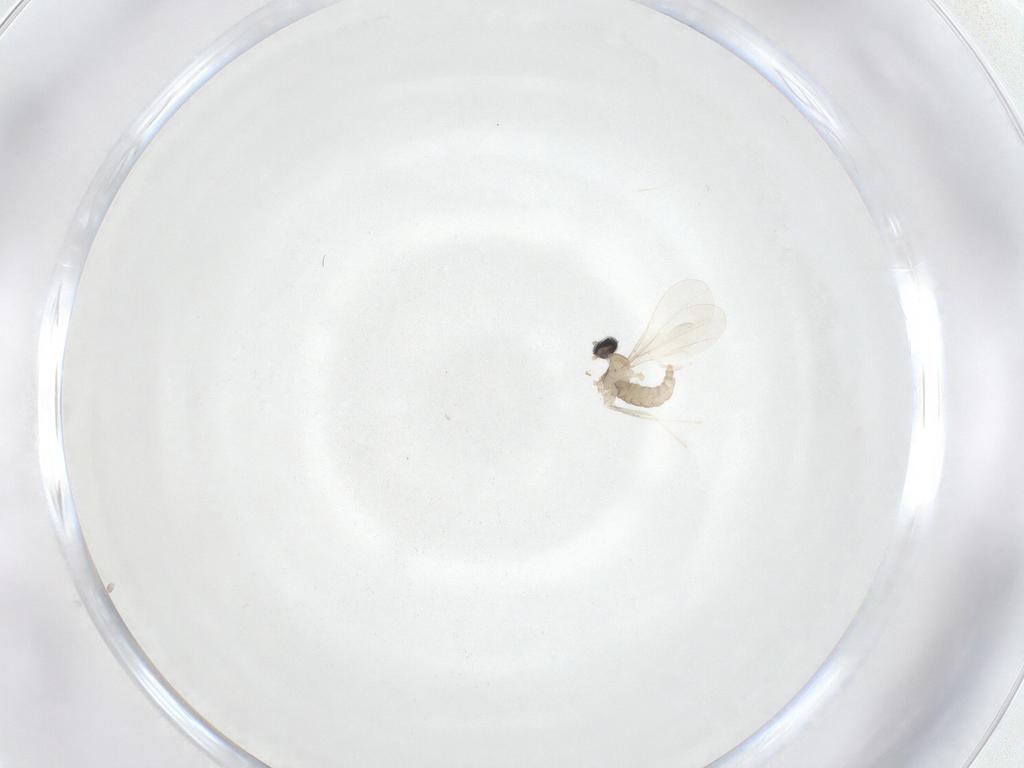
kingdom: Animalia
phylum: Arthropoda
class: Insecta
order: Diptera
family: Cecidomyiidae
